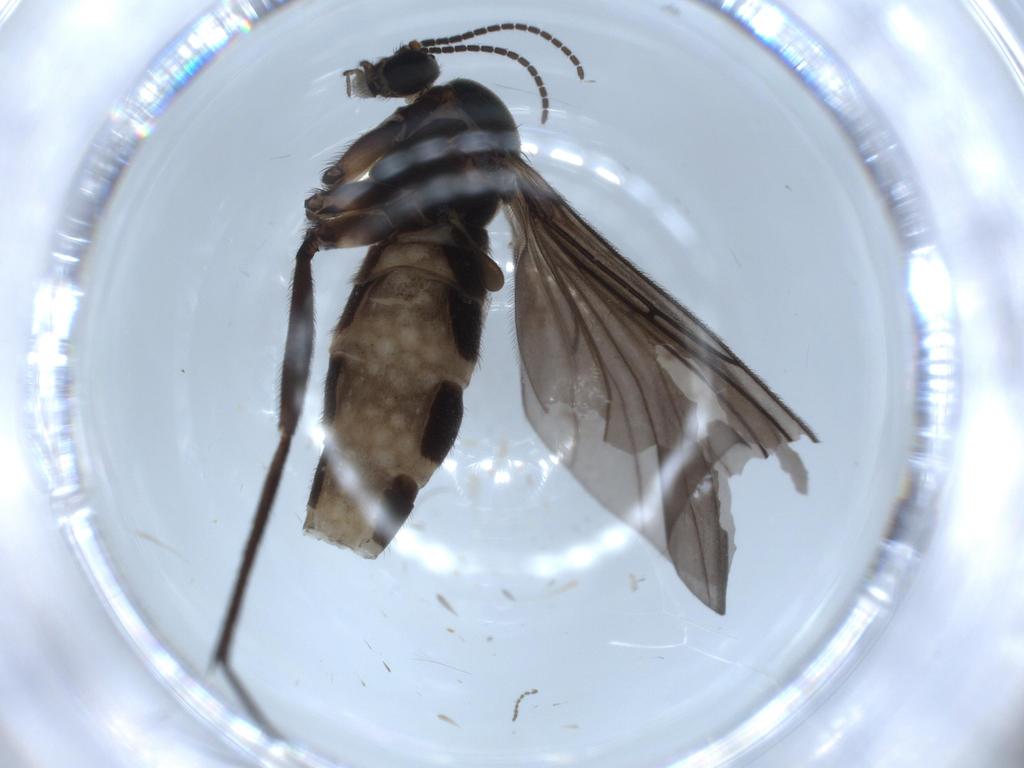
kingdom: Animalia
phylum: Arthropoda
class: Insecta
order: Diptera
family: Sciaridae
